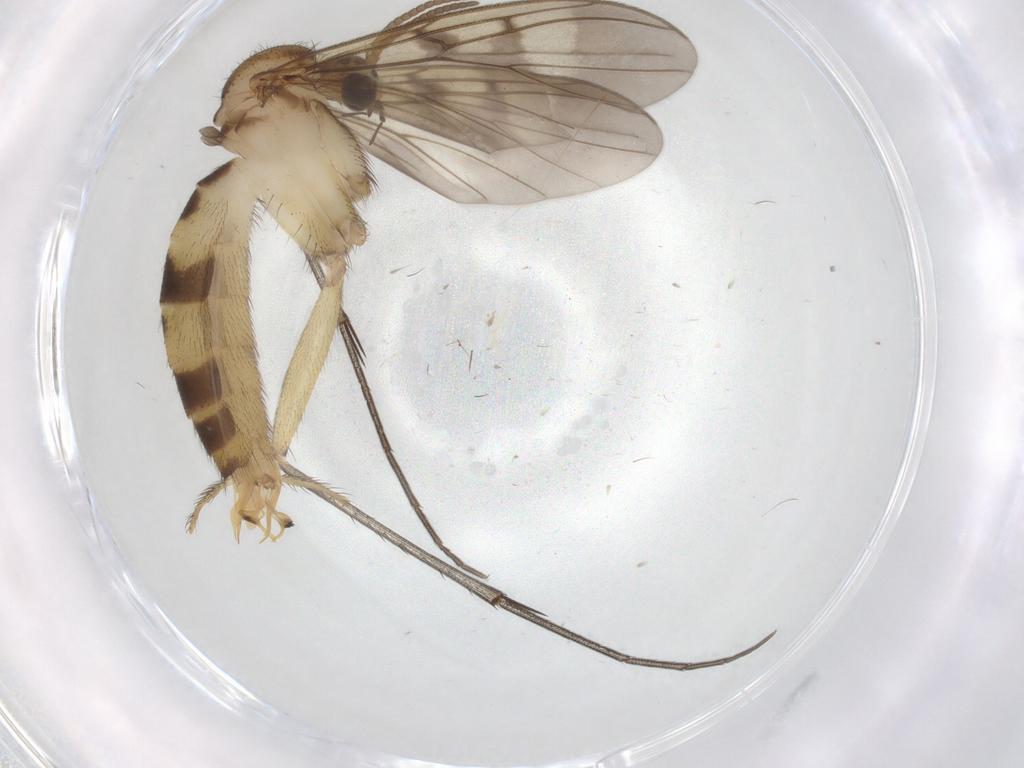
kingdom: Animalia
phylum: Arthropoda
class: Insecta
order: Diptera
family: Mycetophilidae
